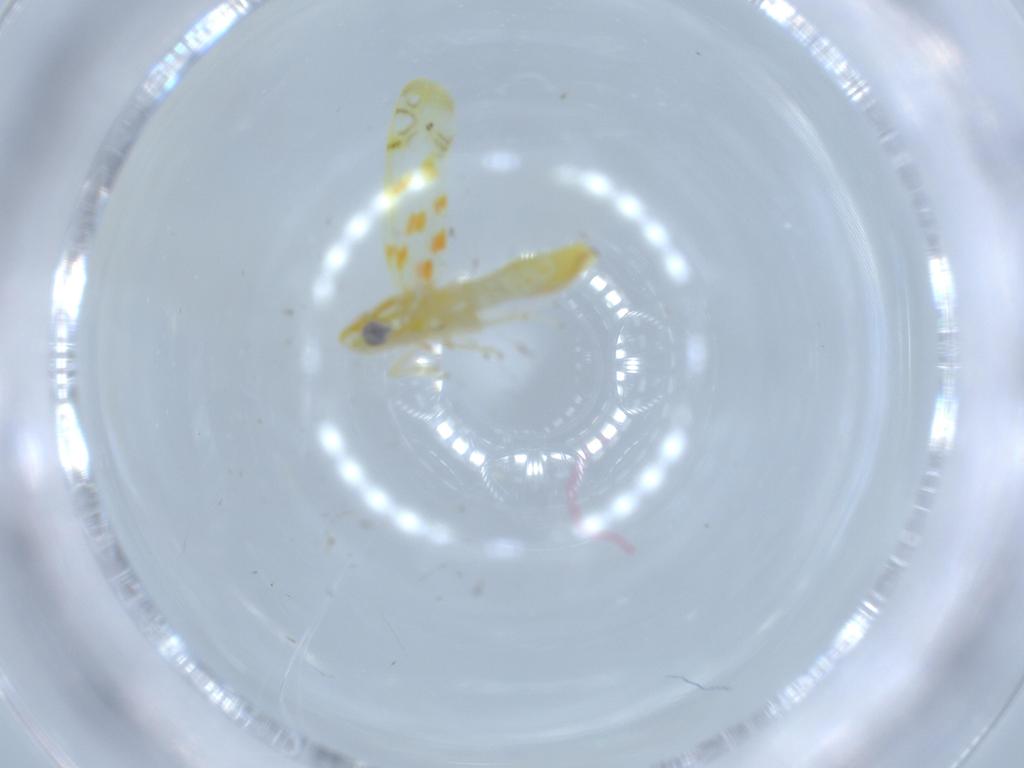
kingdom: Animalia
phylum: Arthropoda
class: Insecta
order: Hemiptera
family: Cicadellidae
